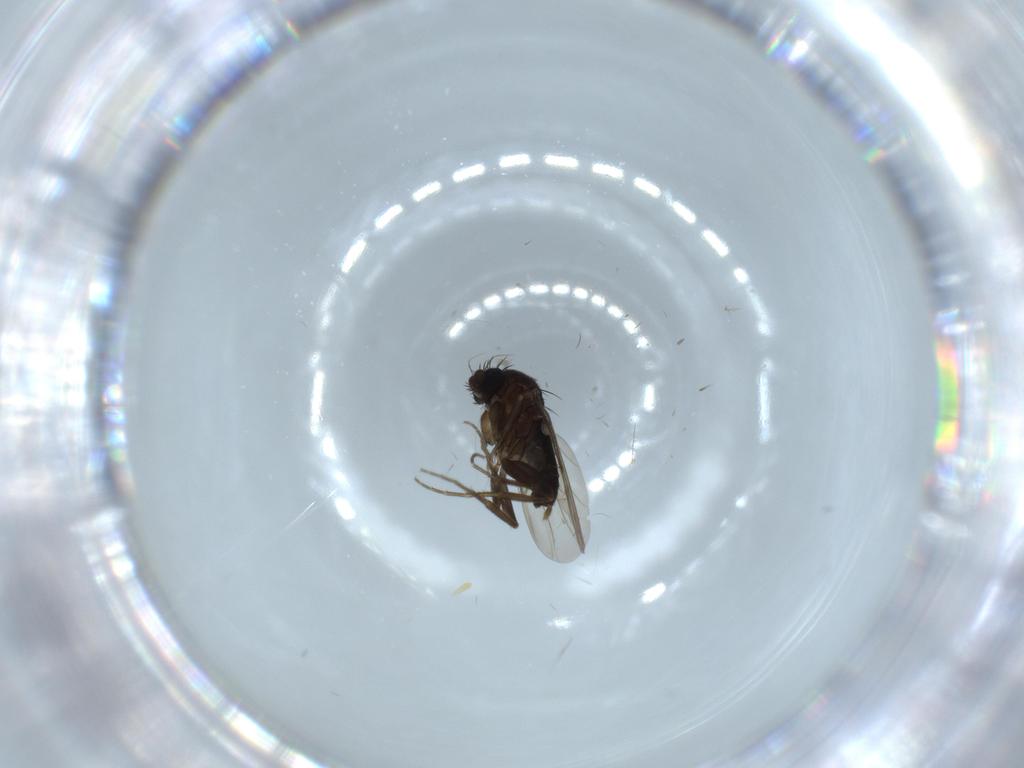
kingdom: Animalia
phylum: Arthropoda
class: Insecta
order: Diptera
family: Phoridae
